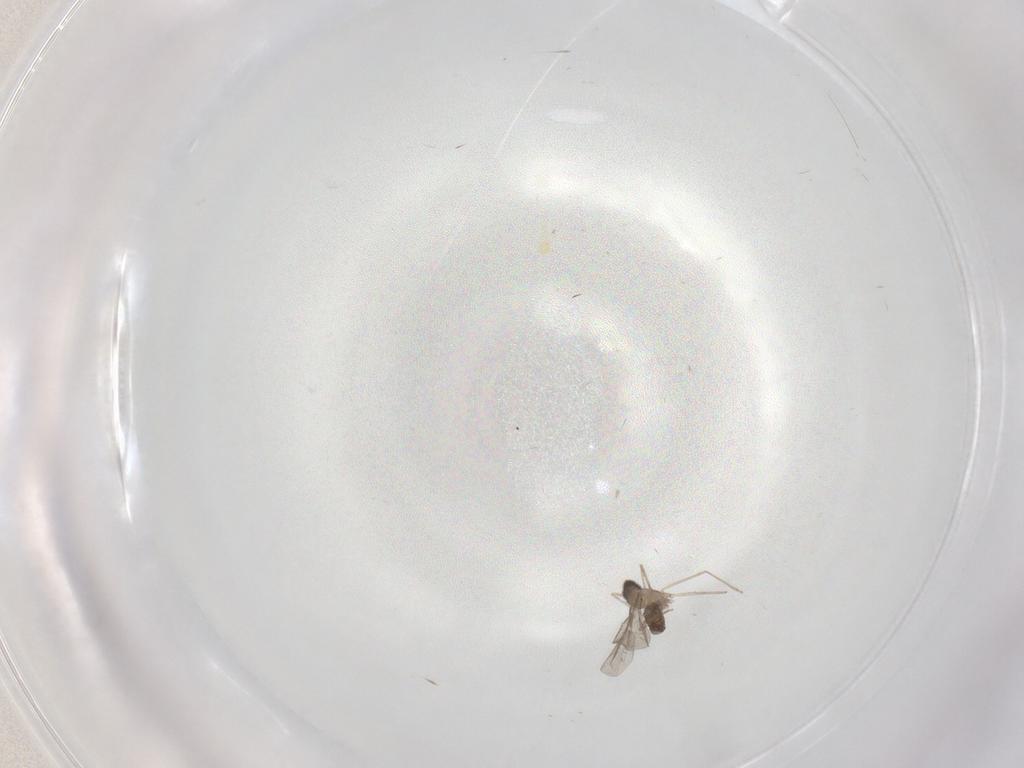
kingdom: Animalia
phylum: Arthropoda
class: Insecta
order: Diptera
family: Cecidomyiidae
